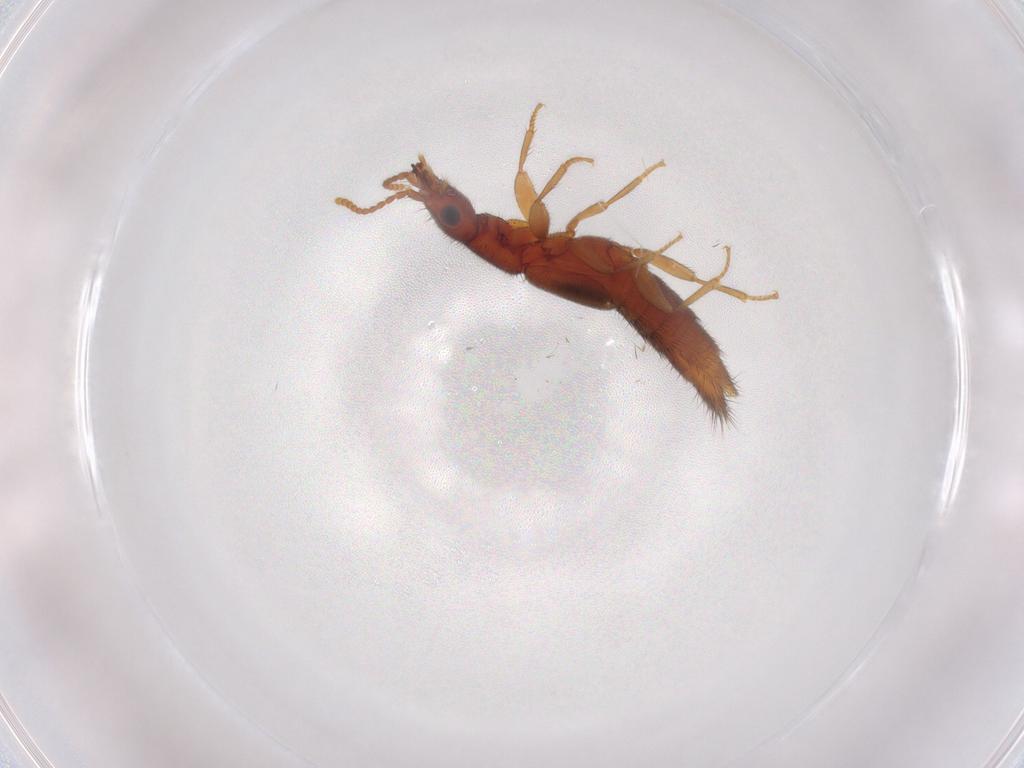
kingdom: Animalia
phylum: Arthropoda
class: Insecta
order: Coleoptera
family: Staphylinidae
